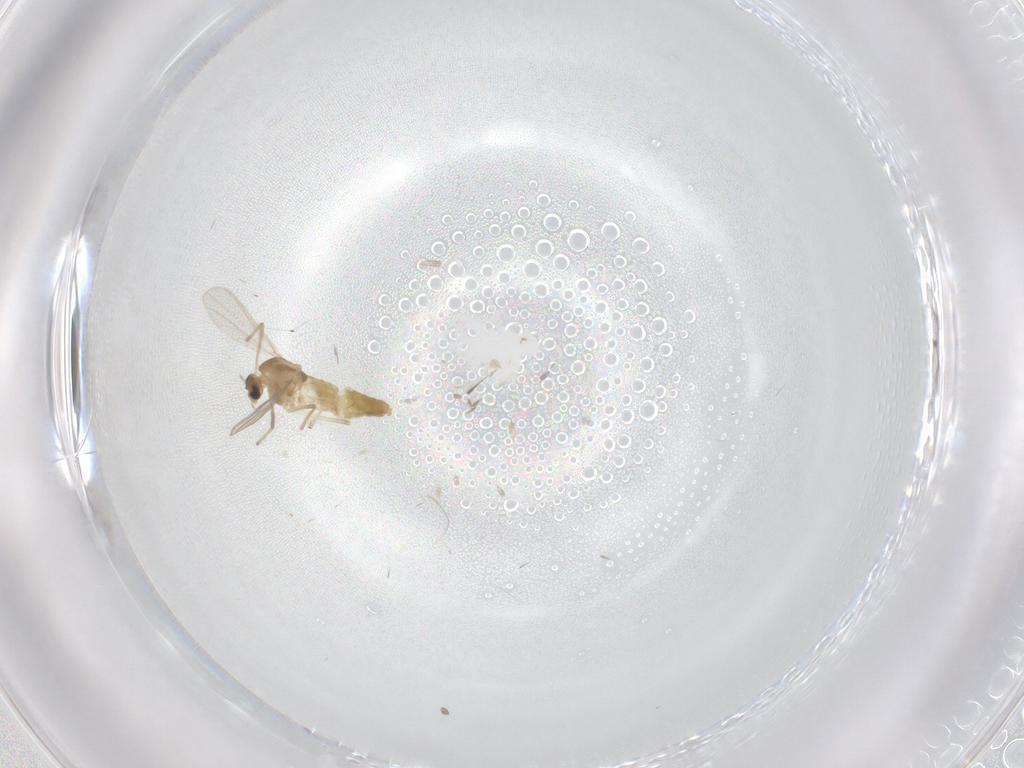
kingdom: Animalia
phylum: Arthropoda
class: Insecta
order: Diptera
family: Chironomidae
